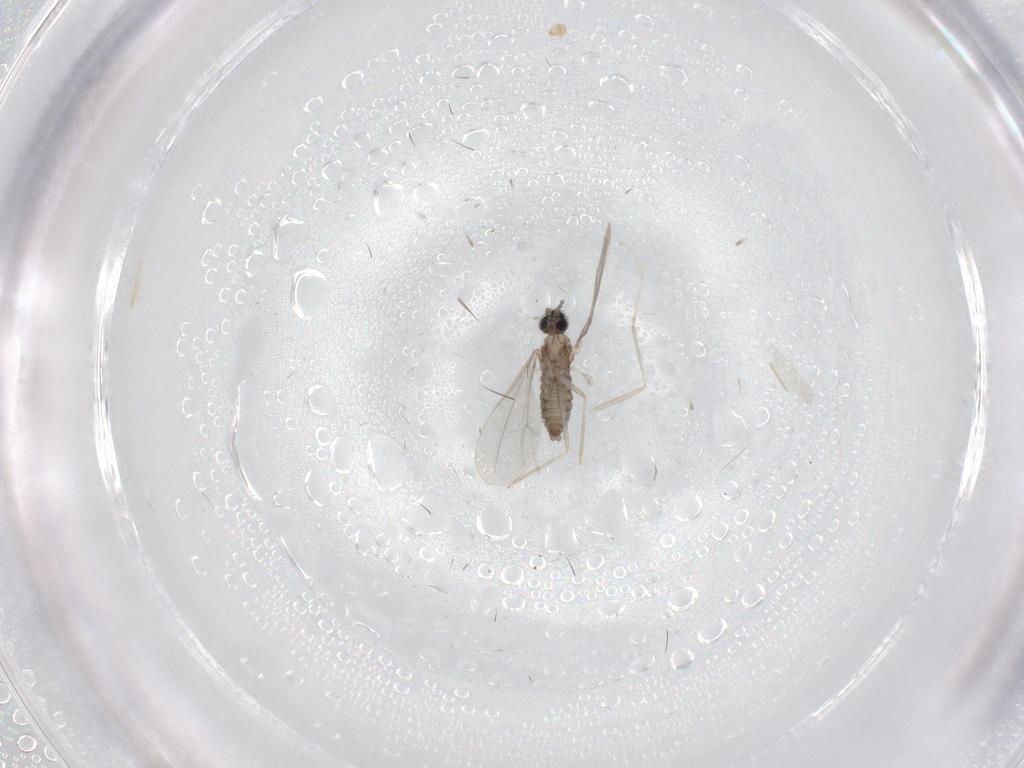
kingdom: Animalia
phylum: Arthropoda
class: Insecta
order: Diptera
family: Cecidomyiidae
